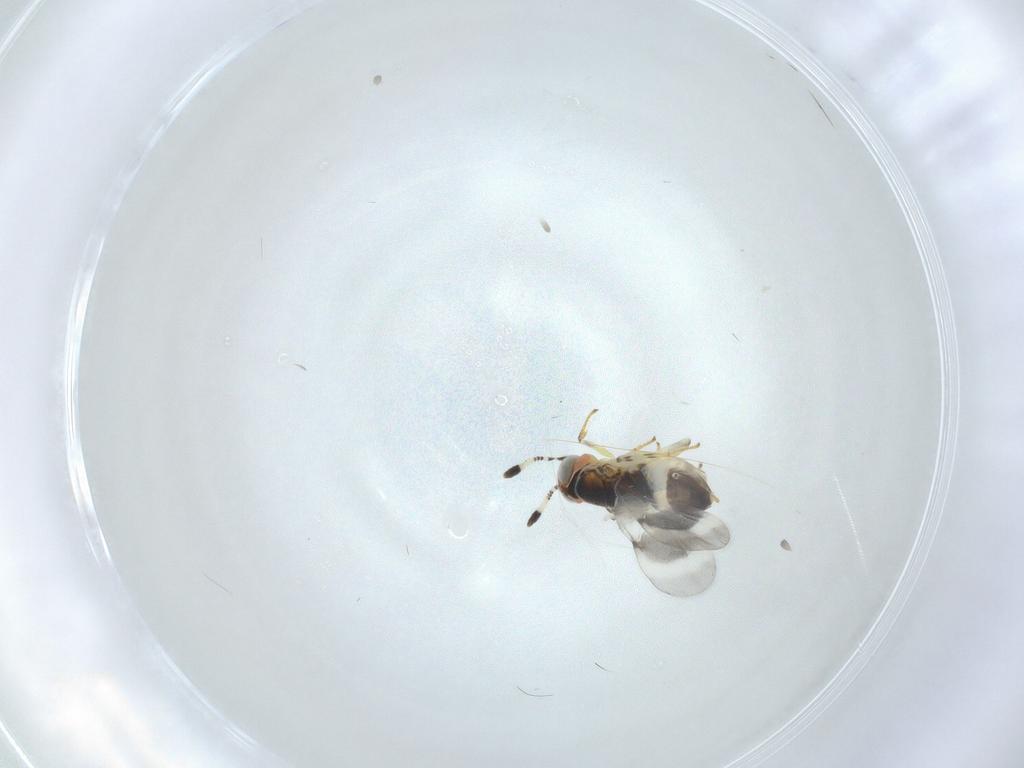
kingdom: Animalia
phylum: Arthropoda
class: Insecta
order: Hymenoptera
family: Encyrtidae
